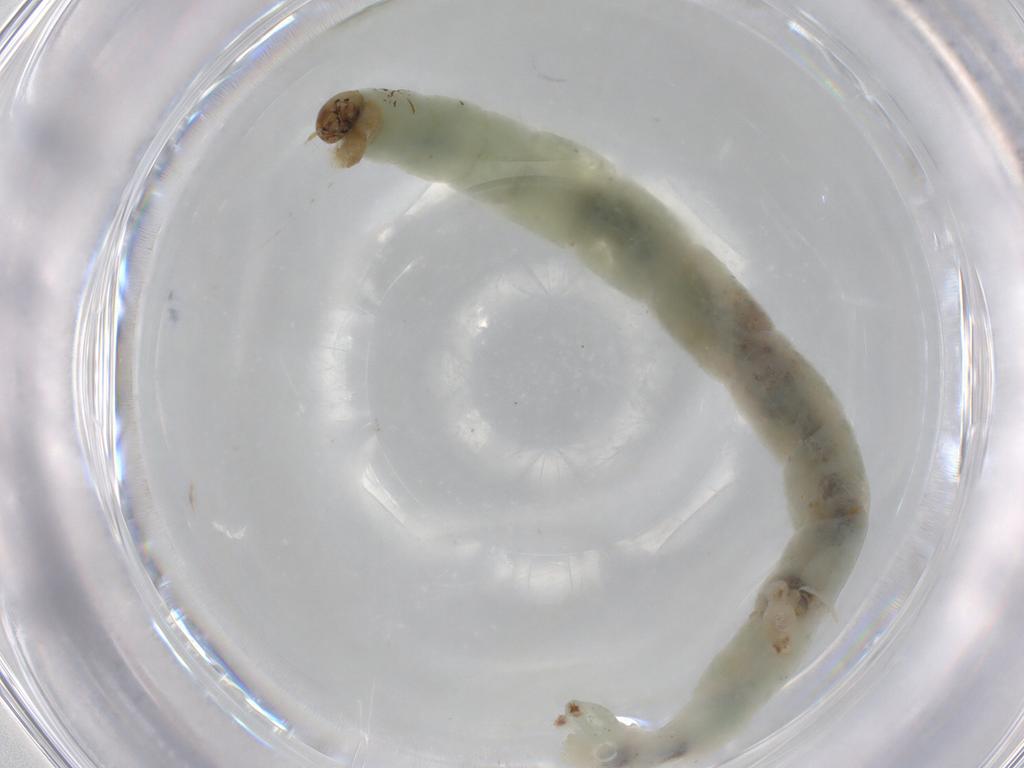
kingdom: Animalia
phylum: Arthropoda
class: Insecta
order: Diptera
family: Chironomidae
